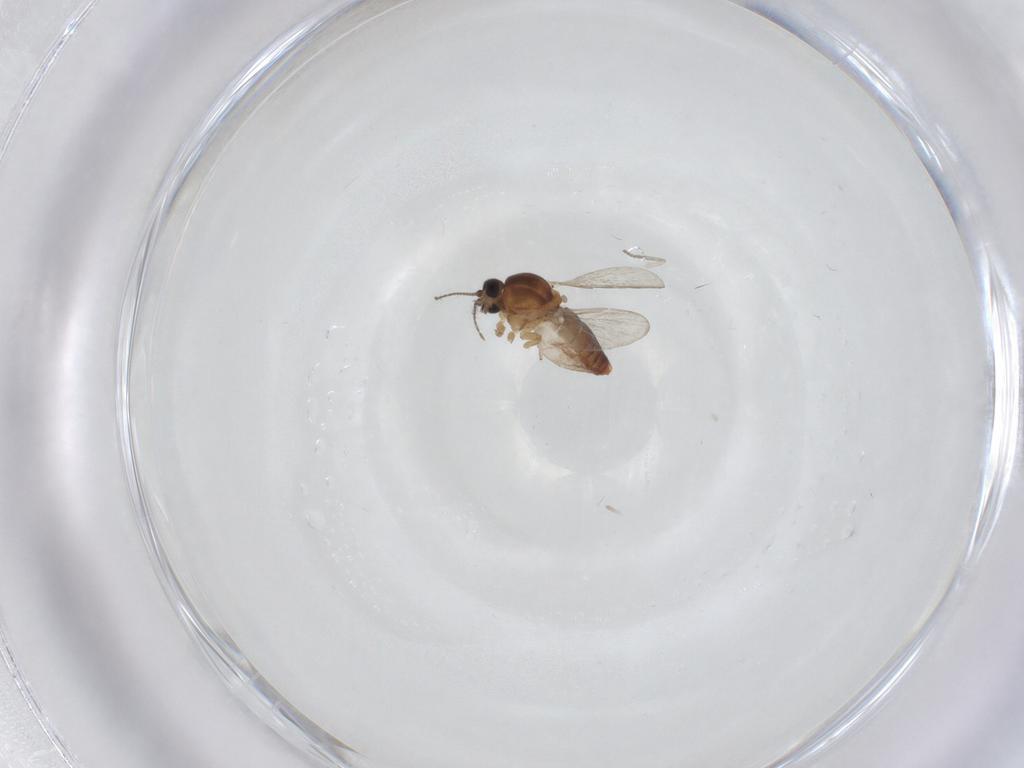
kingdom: Animalia
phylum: Arthropoda
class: Insecta
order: Diptera
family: Ceratopogonidae
